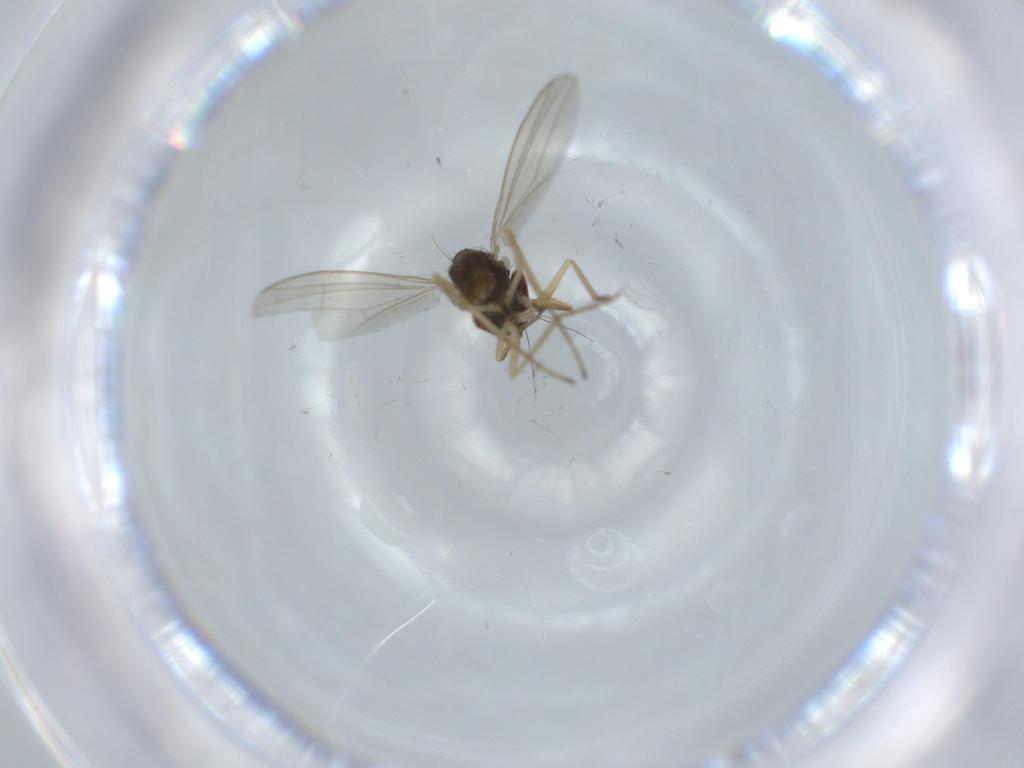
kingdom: Animalia
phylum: Arthropoda
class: Insecta
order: Diptera
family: Dolichopodidae
